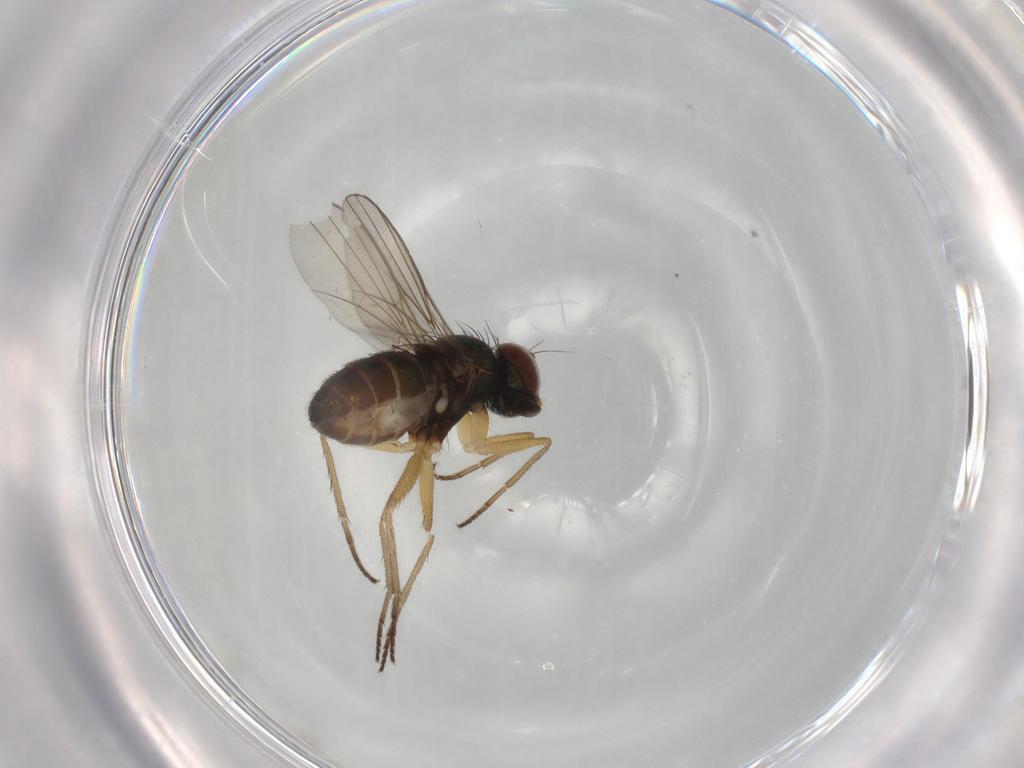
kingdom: Animalia
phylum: Arthropoda
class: Insecta
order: Diptera
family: Dolichopodidae
